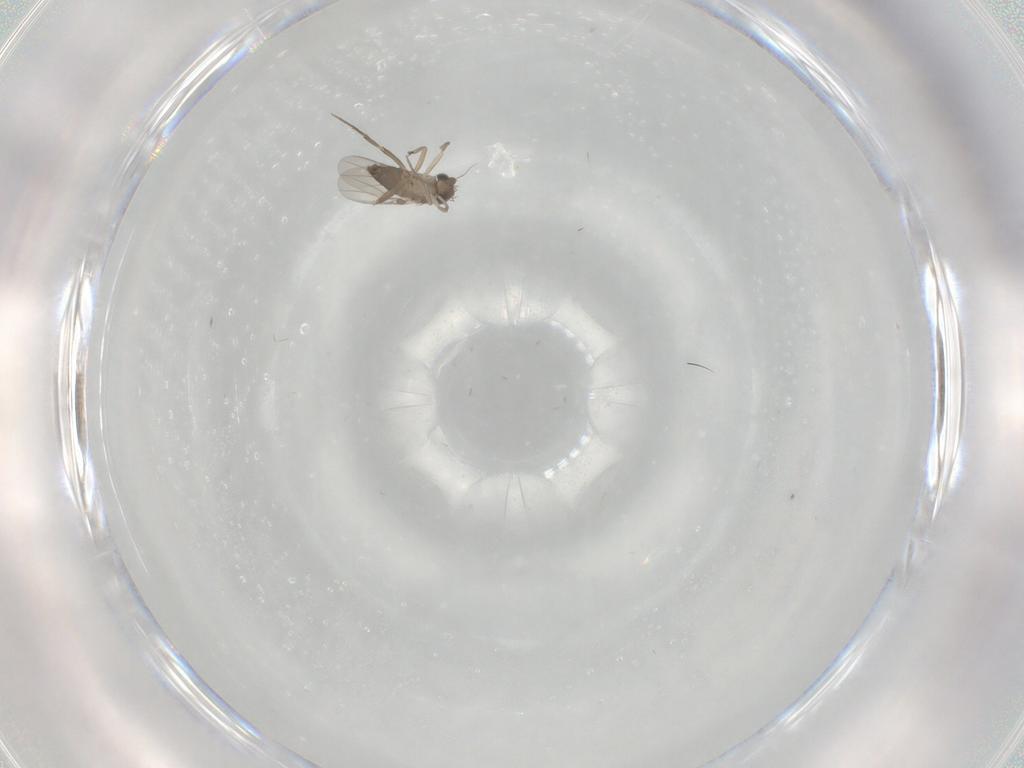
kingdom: Animalia
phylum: Arthropoda
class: Insecta
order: Diptera
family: Phoridae
